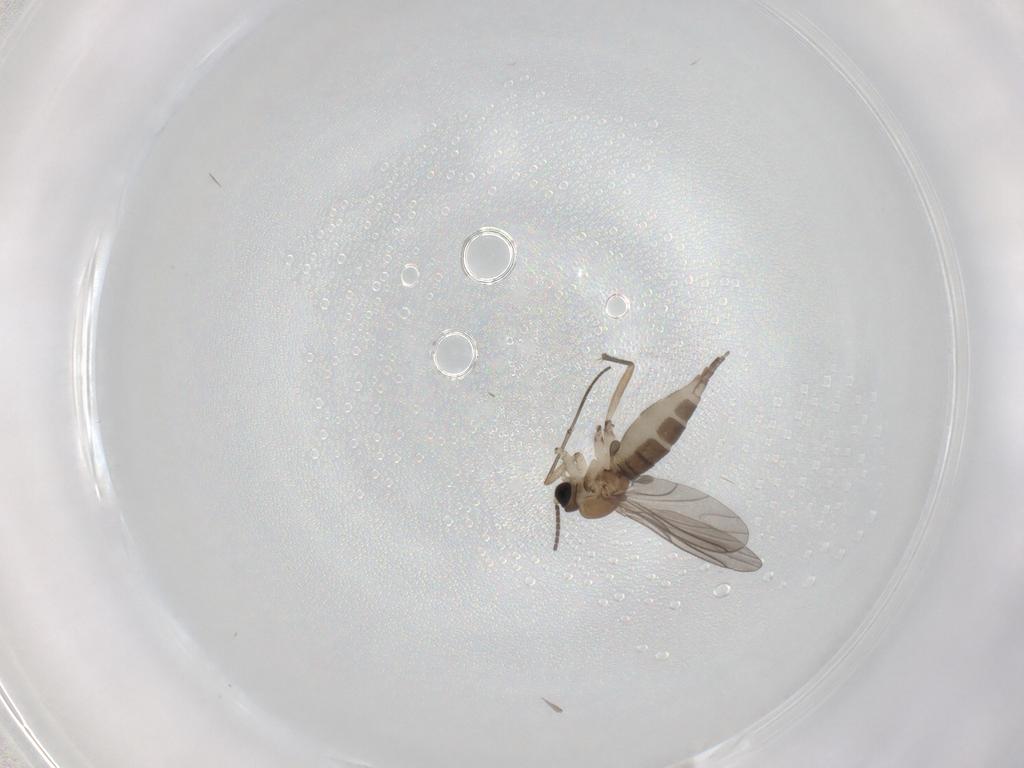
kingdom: Animalia
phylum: Arthropoda
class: Insecta
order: Diptera
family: Sciaridae
